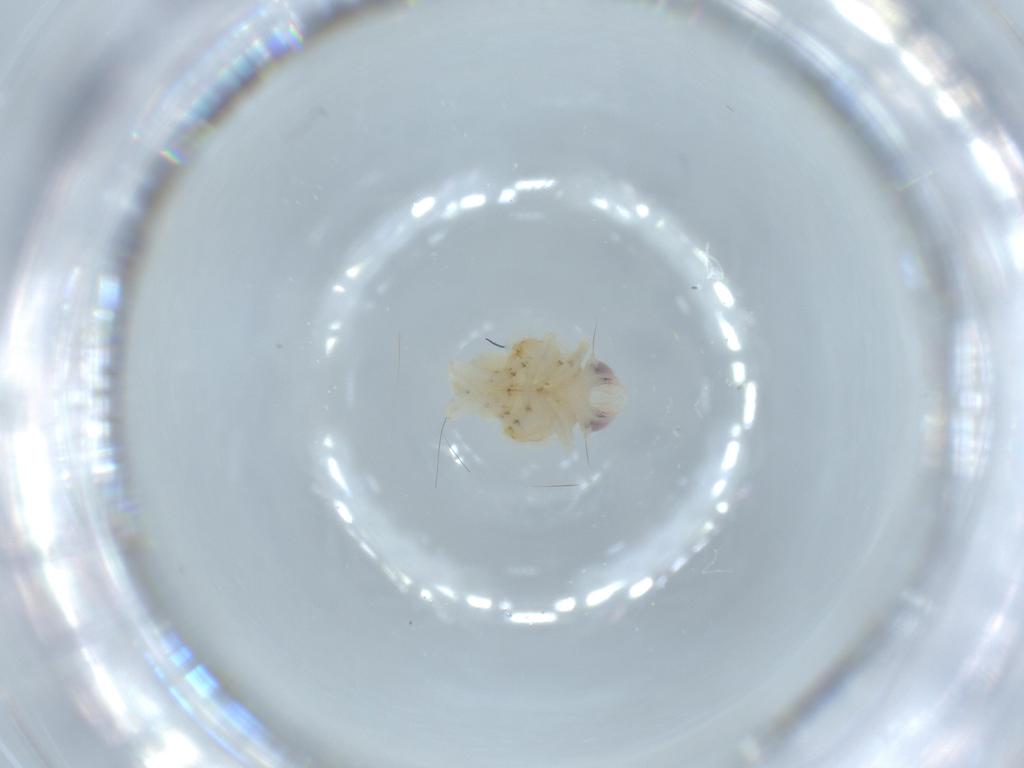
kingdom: Animalia
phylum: Arthropoda
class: Insecta
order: Hemiptera
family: Nogodinidae
